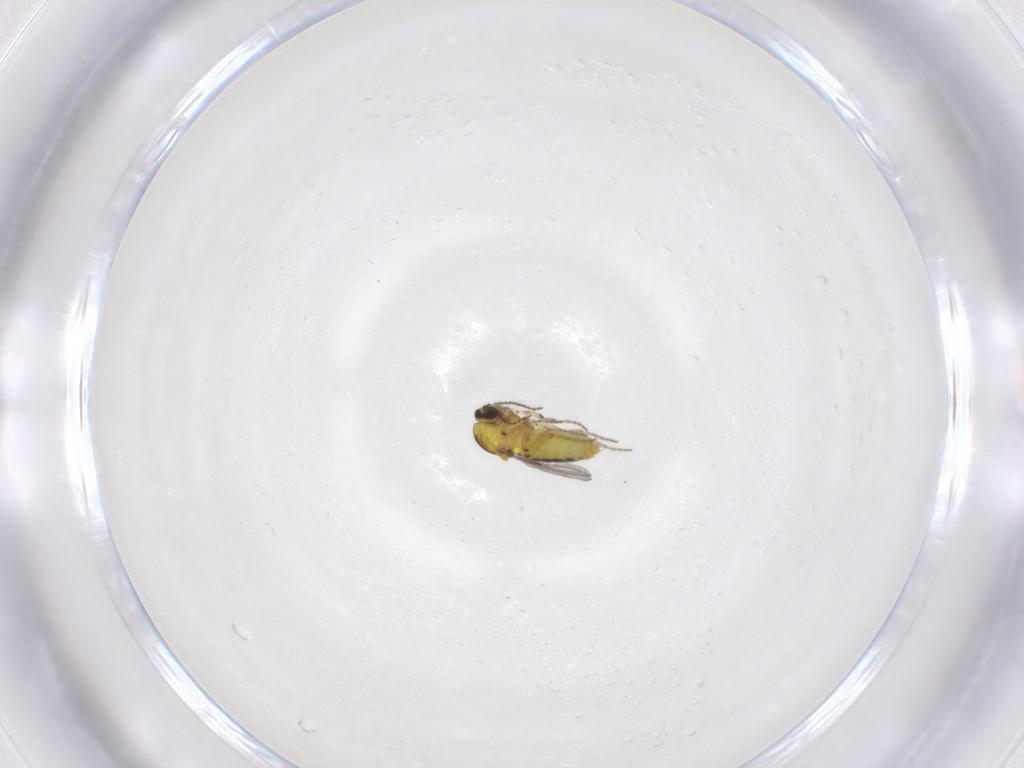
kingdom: Animalia
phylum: Arthropoda
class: Insecta
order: Diptera
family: Ceratopogonidae
